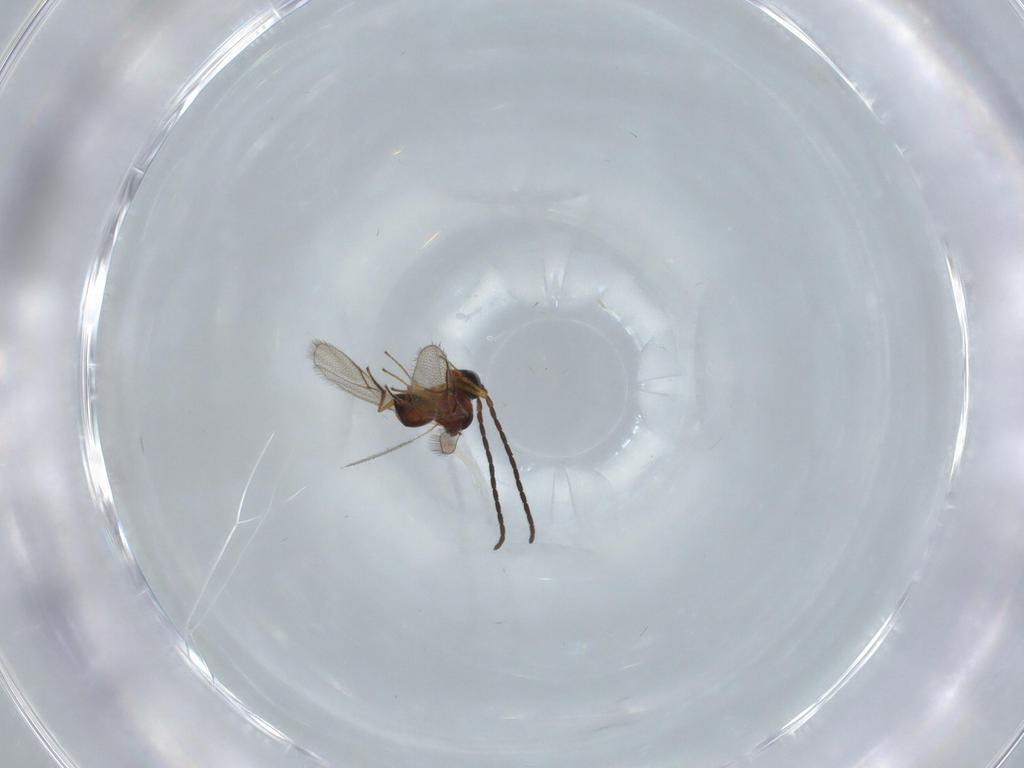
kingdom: Animalia
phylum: Arthropoda
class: Insecta
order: Hymenoptera
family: Figitidae
